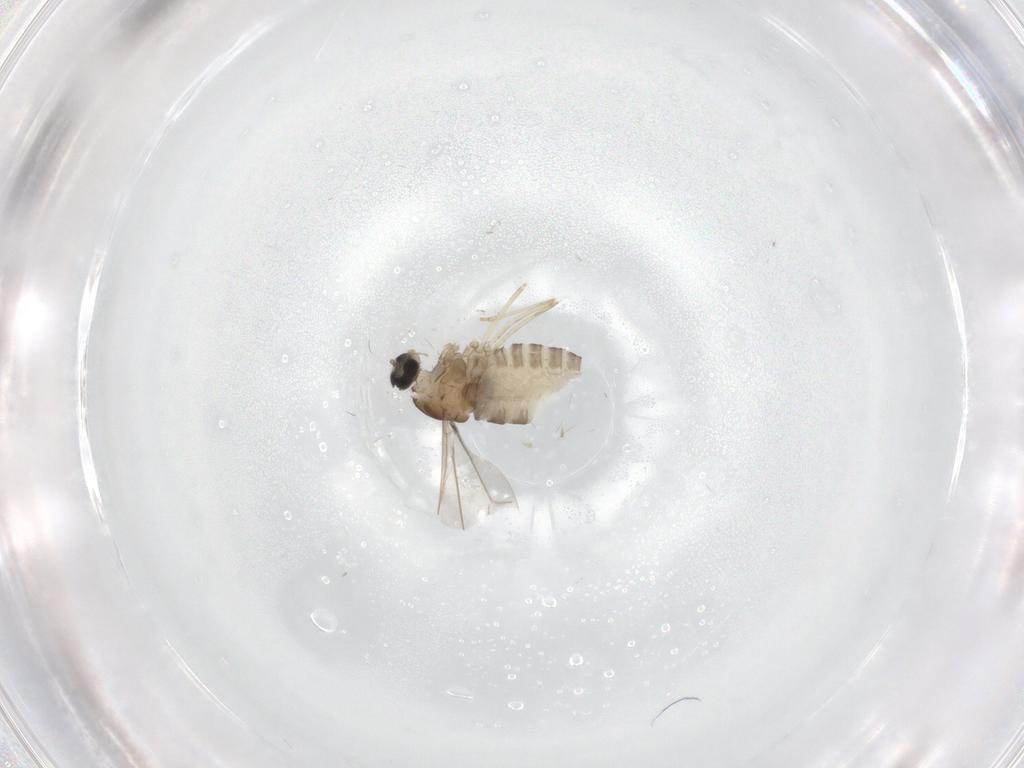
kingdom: Animalia
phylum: Arthropoda
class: Insecta
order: Diptera
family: Cecidomyiidae
